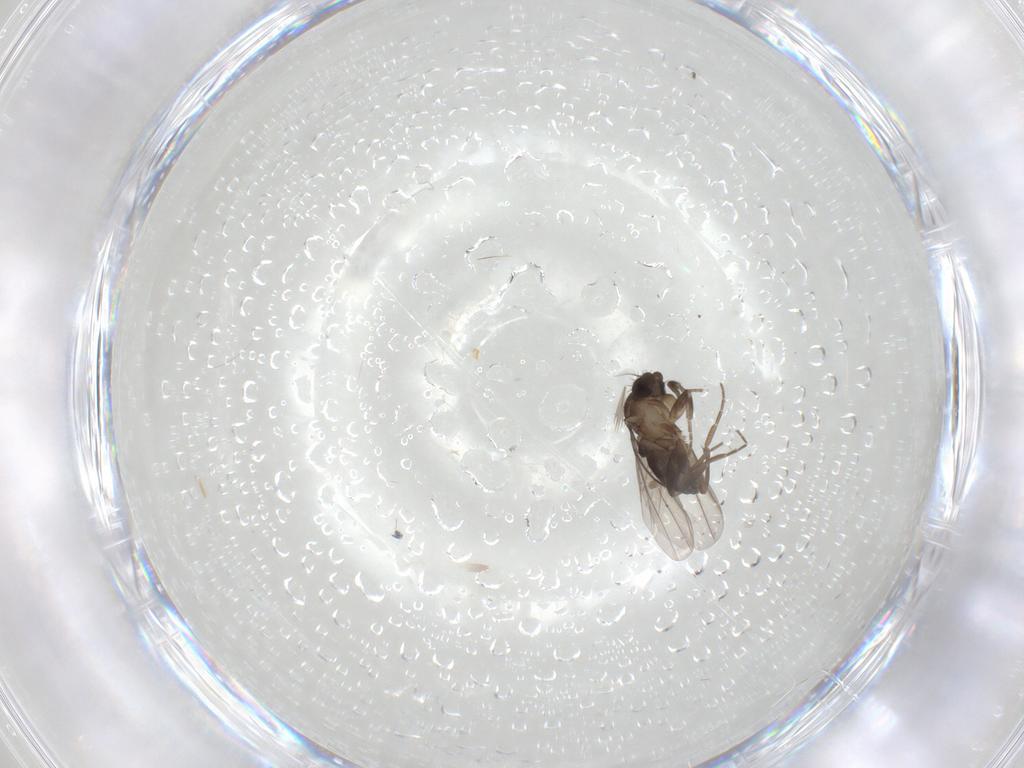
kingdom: Animalia
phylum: Arthropoda
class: Insecta
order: Diptera
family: Phoridae
